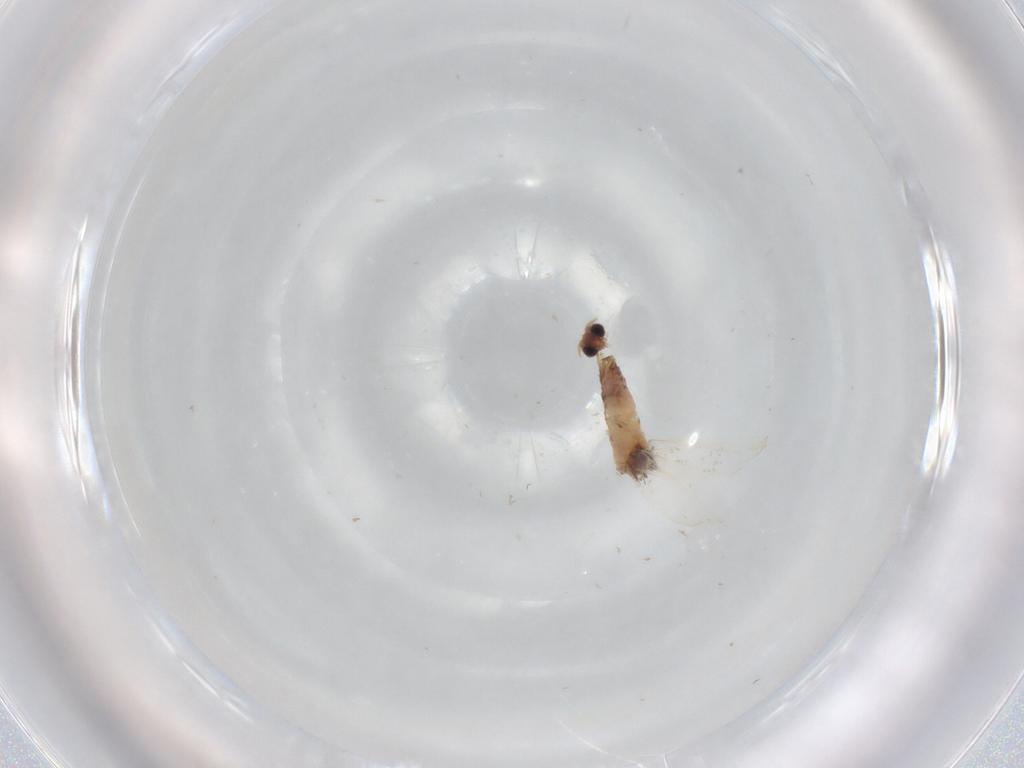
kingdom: Animalia
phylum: Arthropoda
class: Insecta
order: Lepidoptera
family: Nepticulidae
